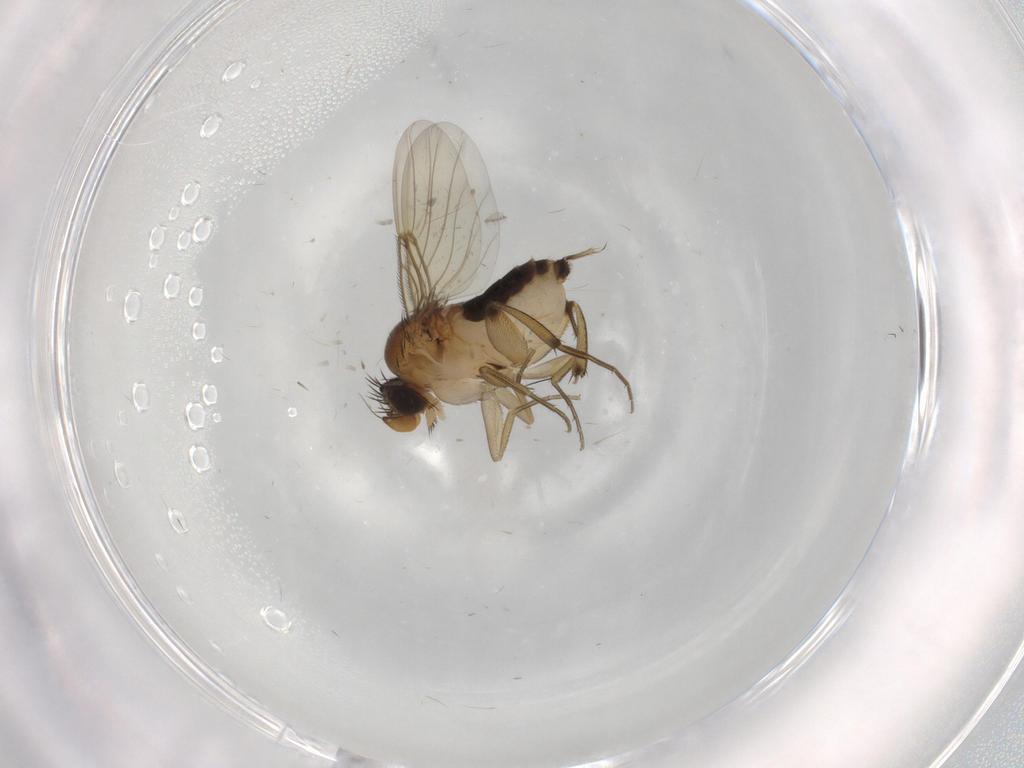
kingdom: Animalia
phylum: Arthropoda
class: Insecta
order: Diptera
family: Phoridae
